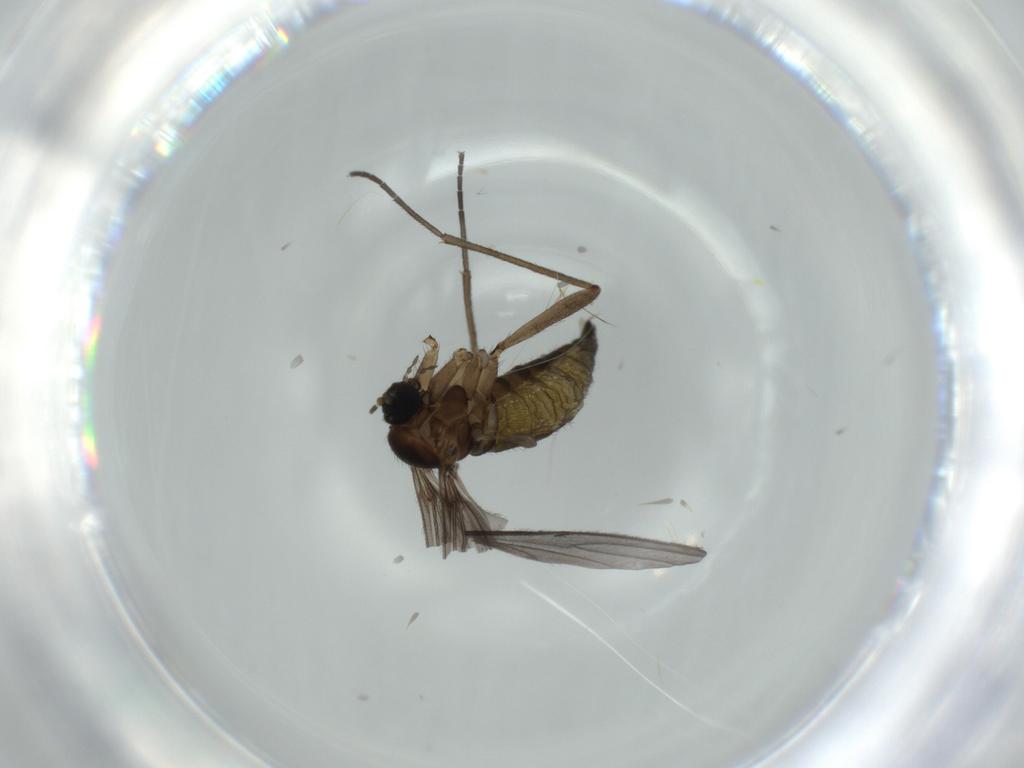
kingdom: Animalia
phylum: Arthropoda
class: Insecta
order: Diptera
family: Sciaridae
